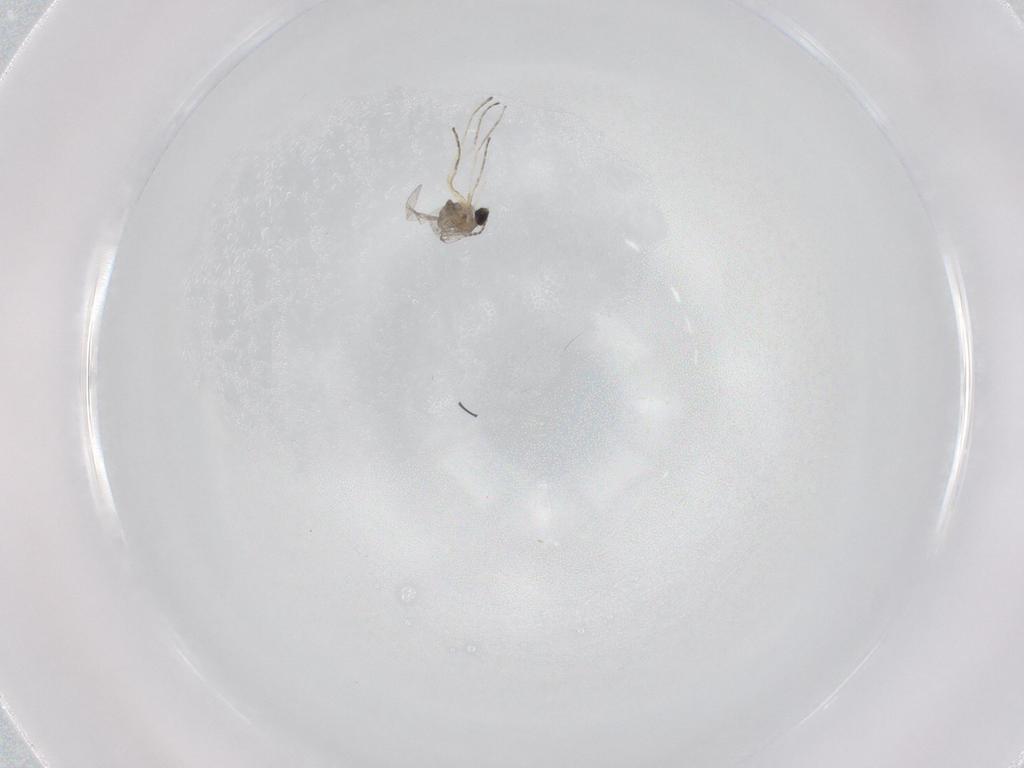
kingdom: Animalia
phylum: Arthropoda
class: Insecta
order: Diptera
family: Cecidomyiidae
